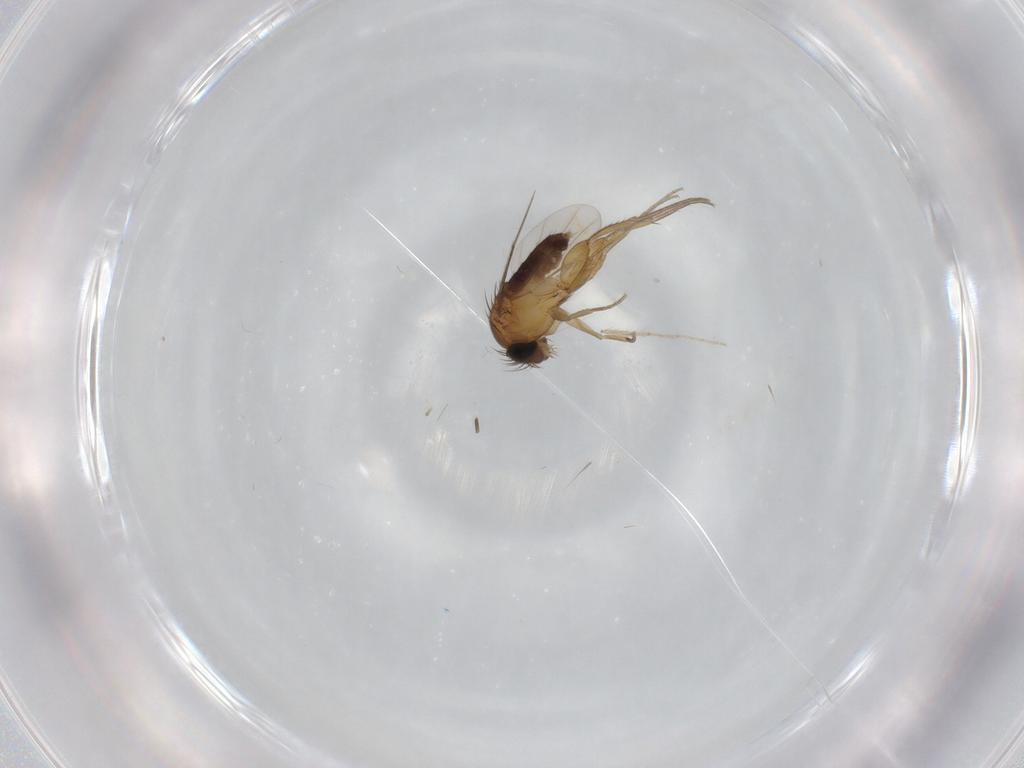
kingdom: Animalia
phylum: Arthropoda
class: Insecta
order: Diptera
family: Phoridae
